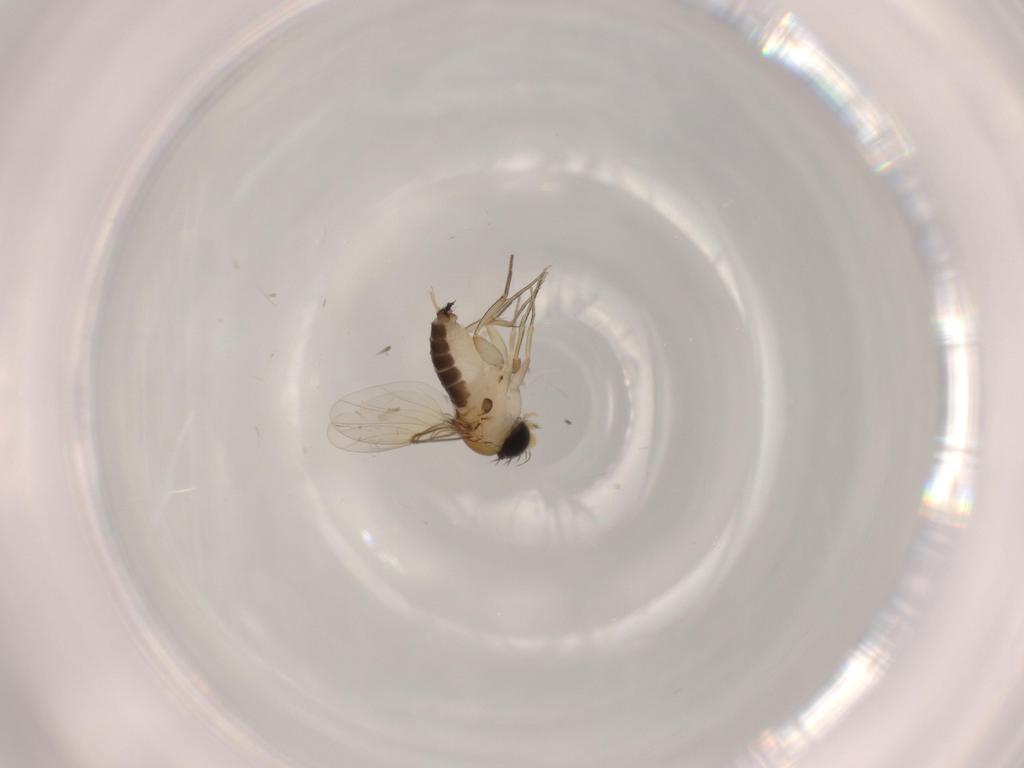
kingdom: Animalia
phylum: Arthropoda
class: Insecta
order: Diptera
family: Phoridae
